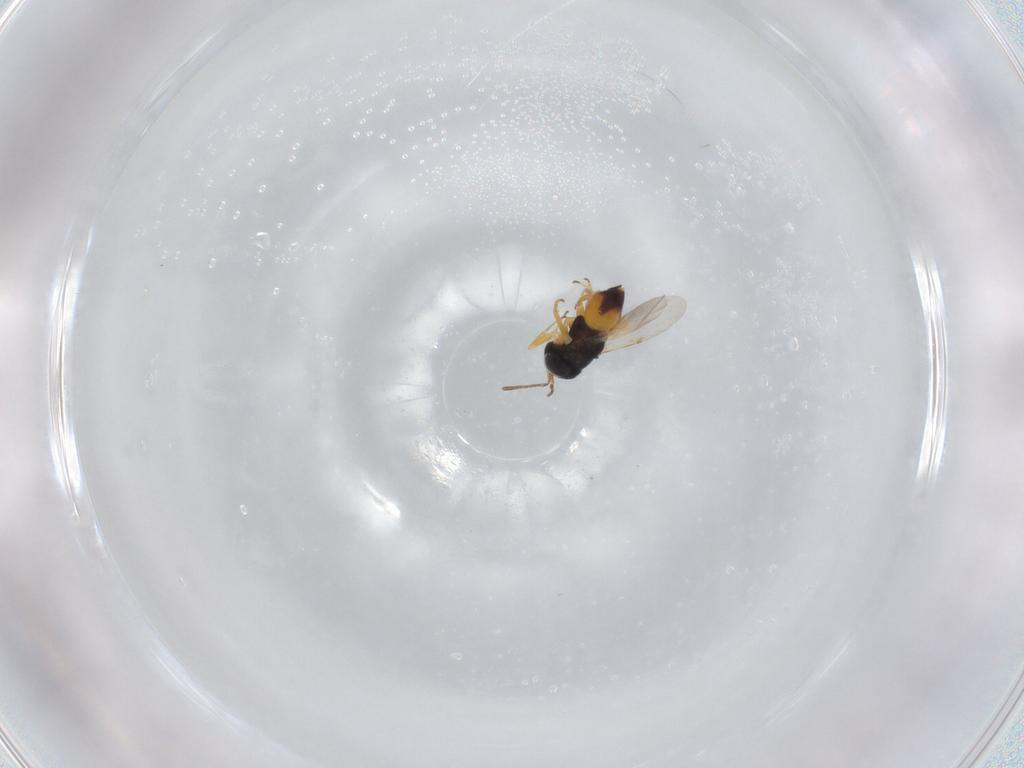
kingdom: Animalia
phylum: Arthropoda
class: Insecta
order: Hymenoptera
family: Encyrtidae
